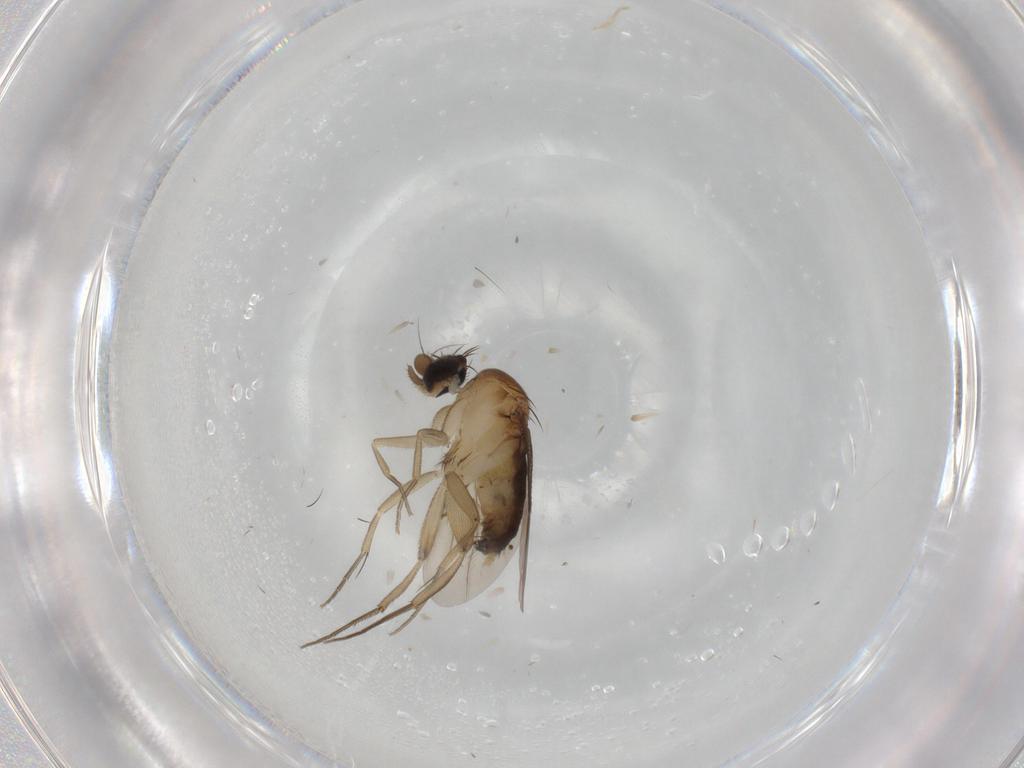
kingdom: Animalia
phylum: Arthropoda
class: Insecta
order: Diptera
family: Phoridae
